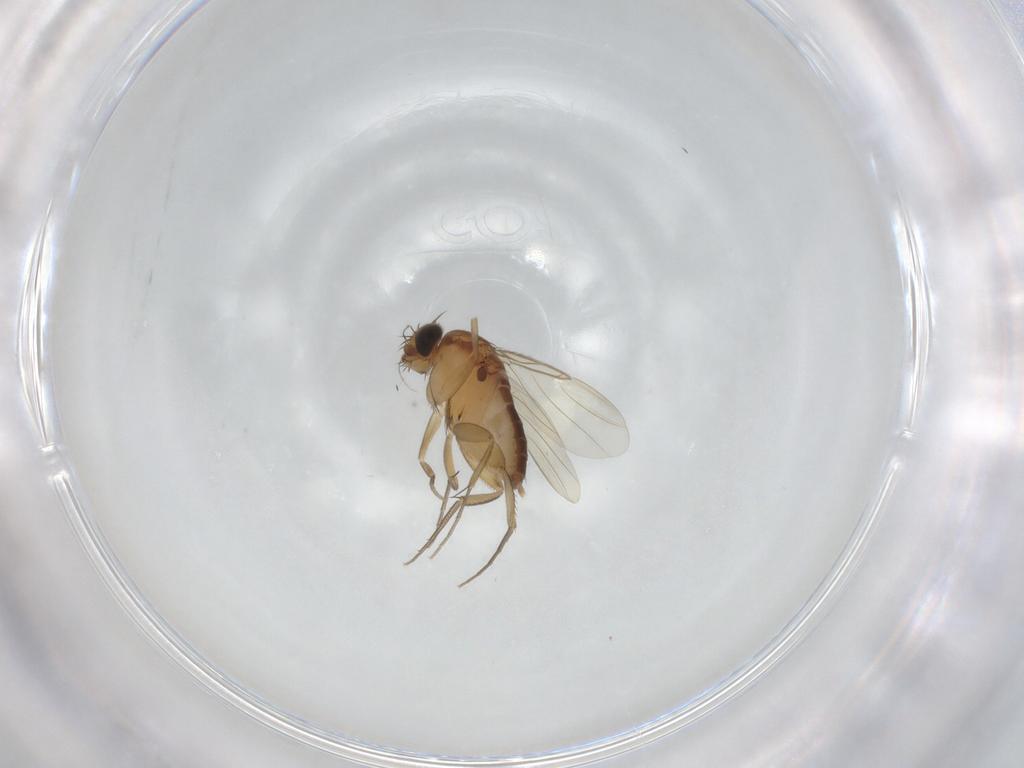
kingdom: Animalia
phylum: Arthropoda
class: Insecta
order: Diptera
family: Phoridae
